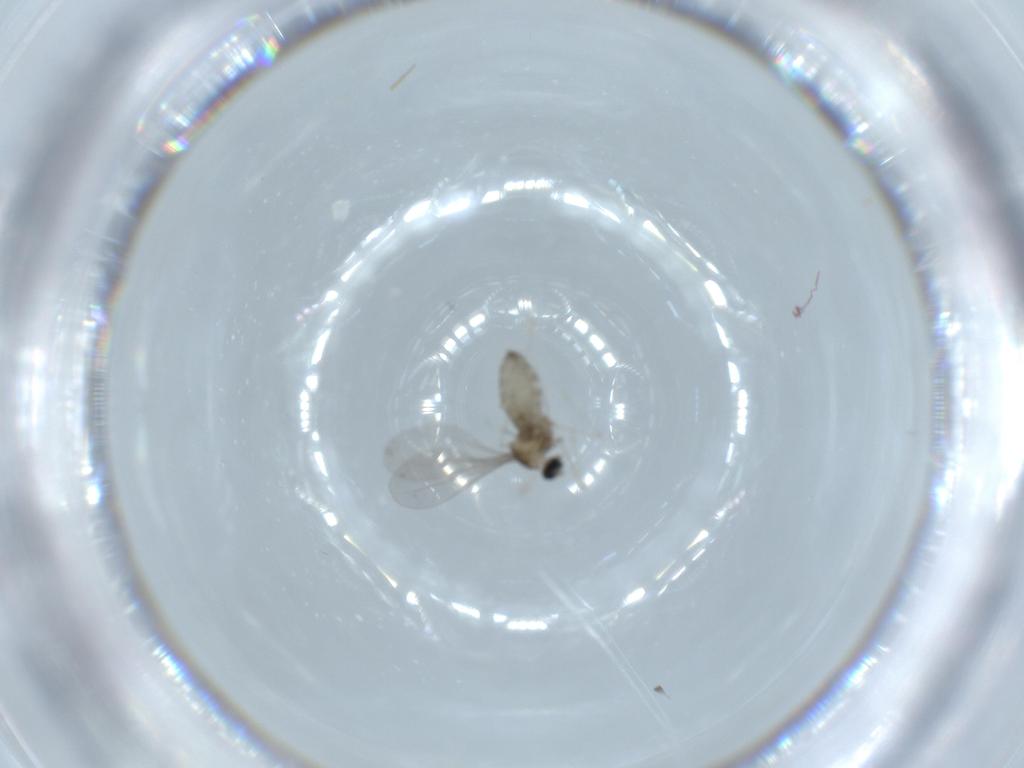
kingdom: Animalia
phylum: Arthropoda
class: Insecta
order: Diptera
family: Cecidomyiidae
